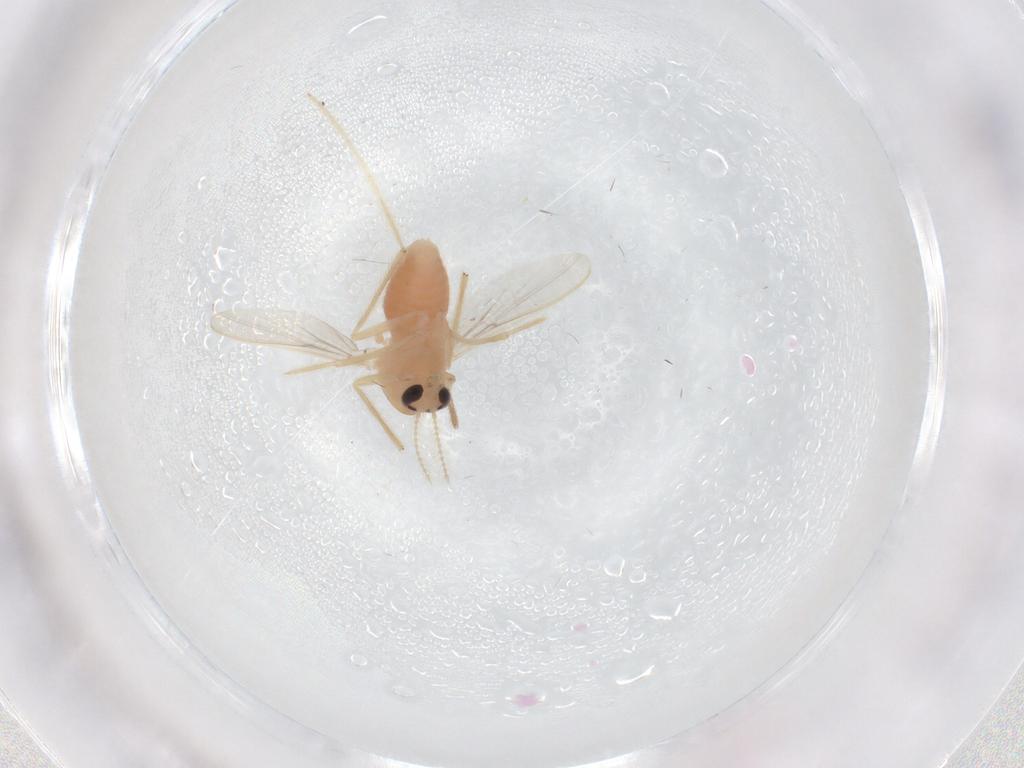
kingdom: Animalia
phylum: Arthropoda
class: Insecta
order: Diptera
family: Chironomidae
